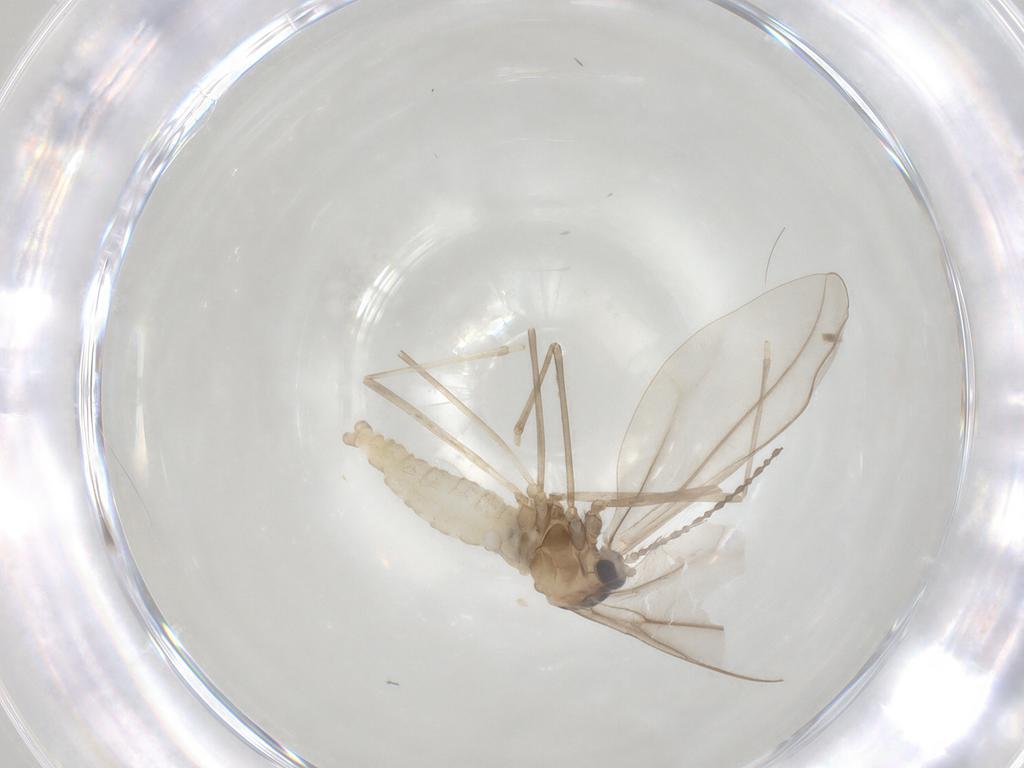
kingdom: Animalia
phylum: Arthropoda
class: Insecta
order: Diptera
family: Cecidomyiidae
